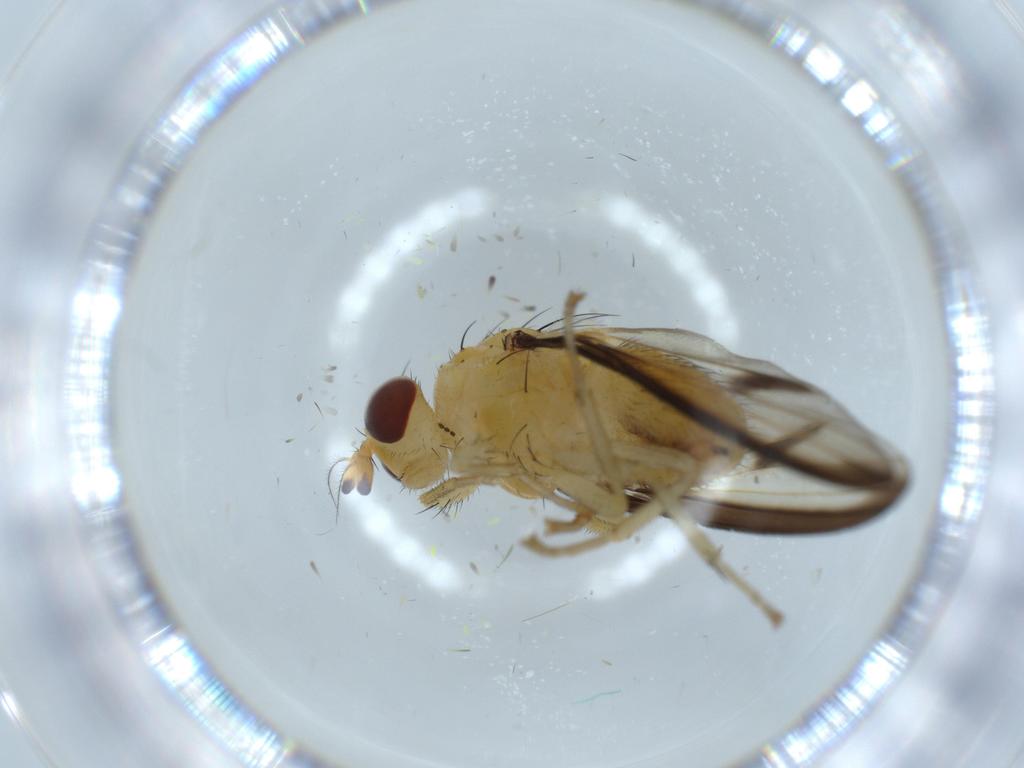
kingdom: Animalia
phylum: Arthropoda
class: Insecta
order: Diptera
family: Lauxaniidae
